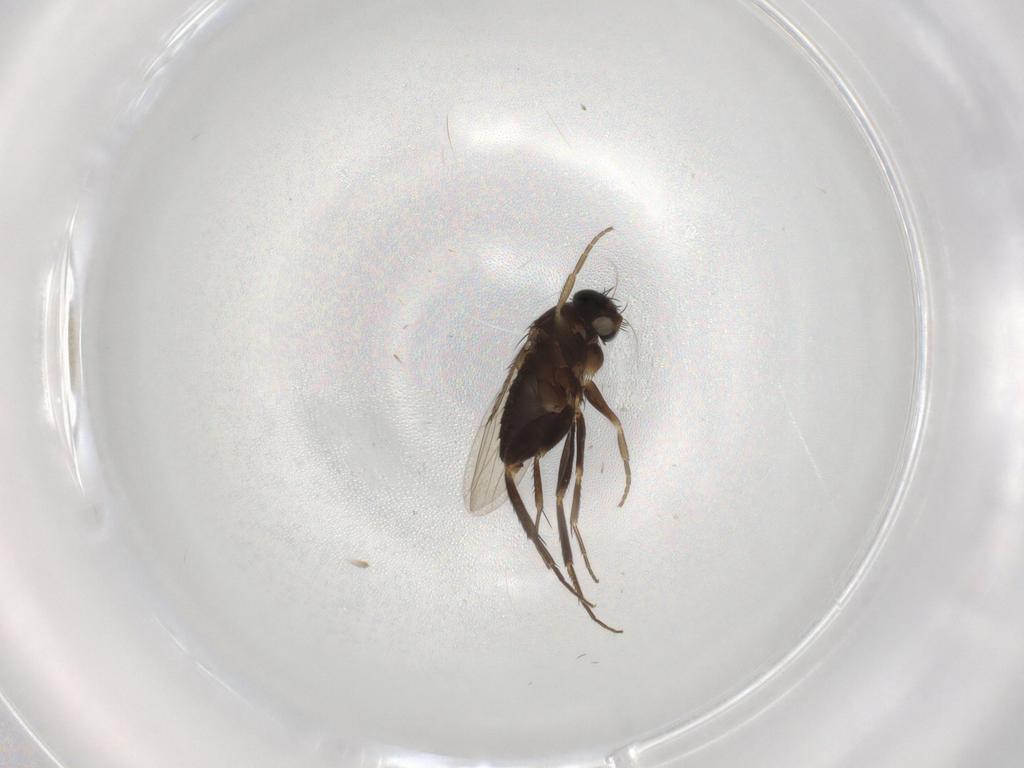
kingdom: Animalia
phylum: Arthropoda
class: Insecta
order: Diptera
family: Phoridae
